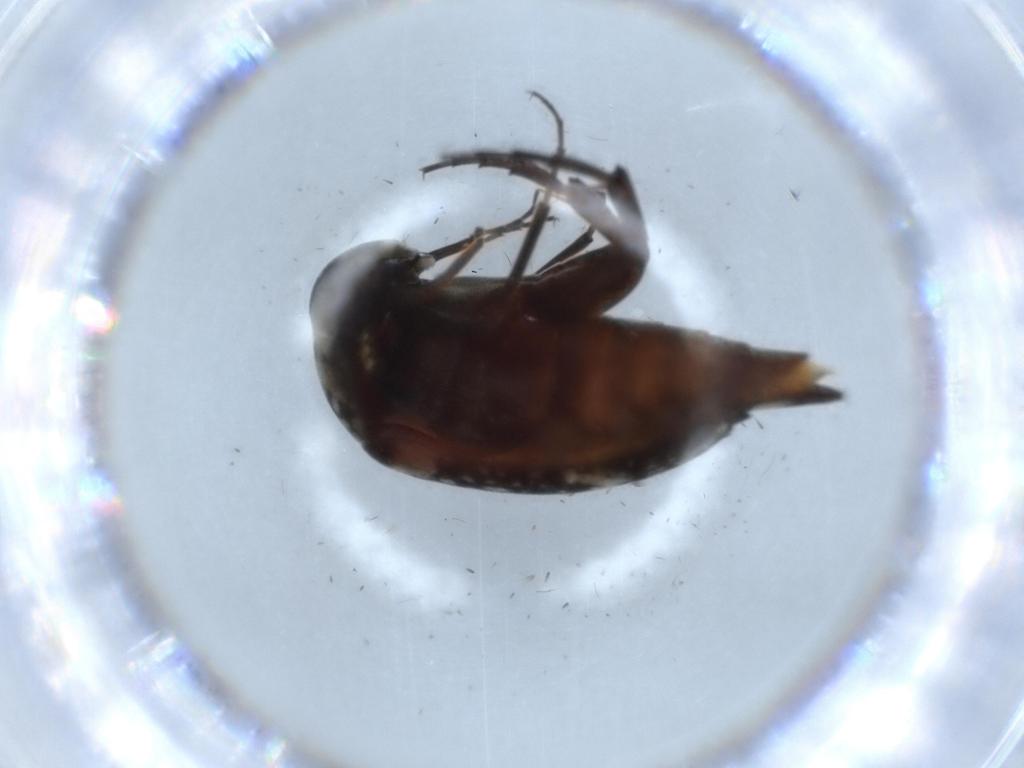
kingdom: Animalia
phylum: Arthropoda
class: Insecta
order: Coleoptera
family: Chrysomelidae
